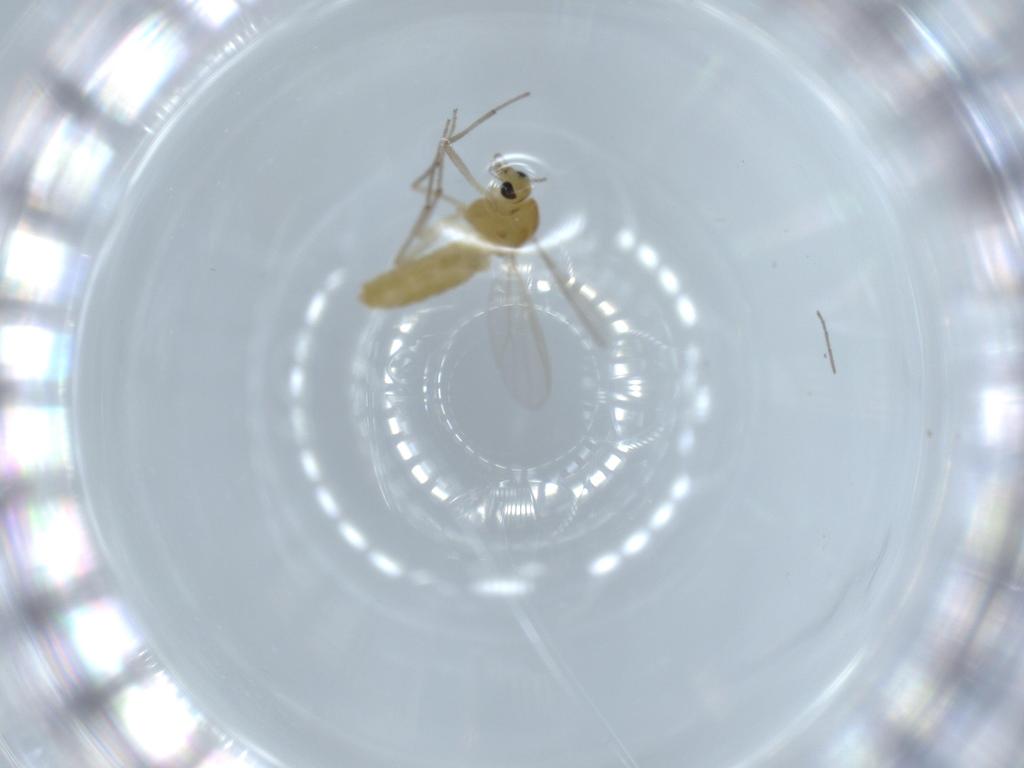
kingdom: Animalia
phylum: Arthropoda
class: Insecta
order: Diptera
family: Chironomidae
